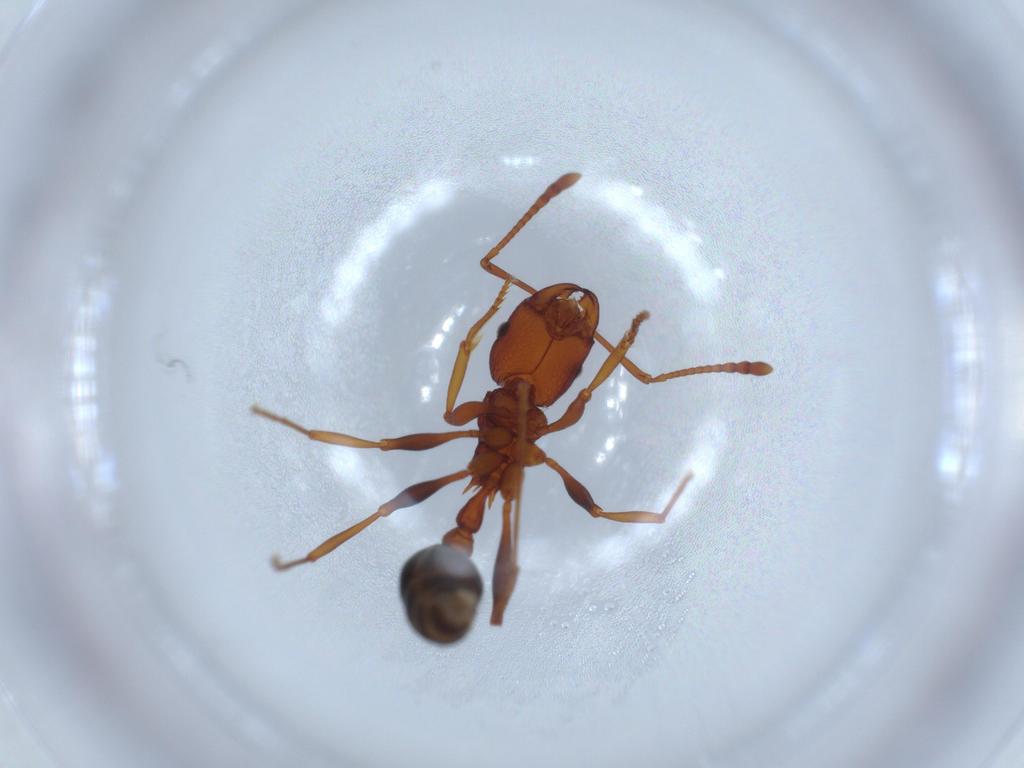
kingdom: Animalia
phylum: Arthropoda
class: Insecta
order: Hymenoptera
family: Formicidae
